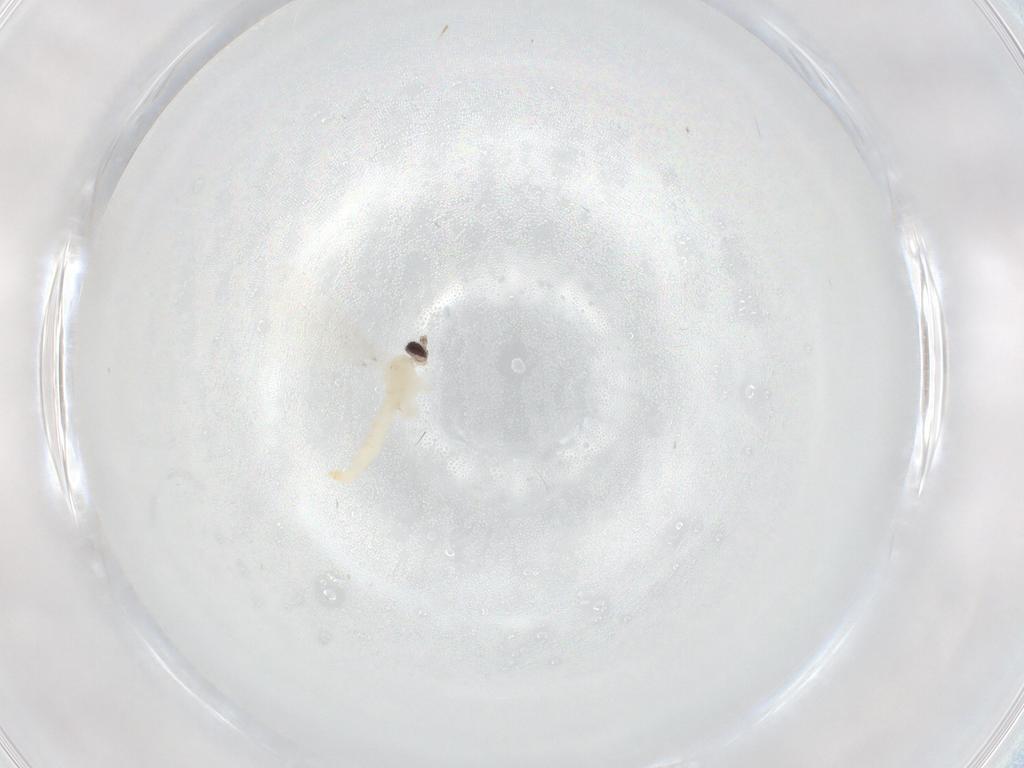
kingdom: Animalia
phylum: Arthropoda
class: Insecta
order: Diptera
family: Cecidomyiidae
